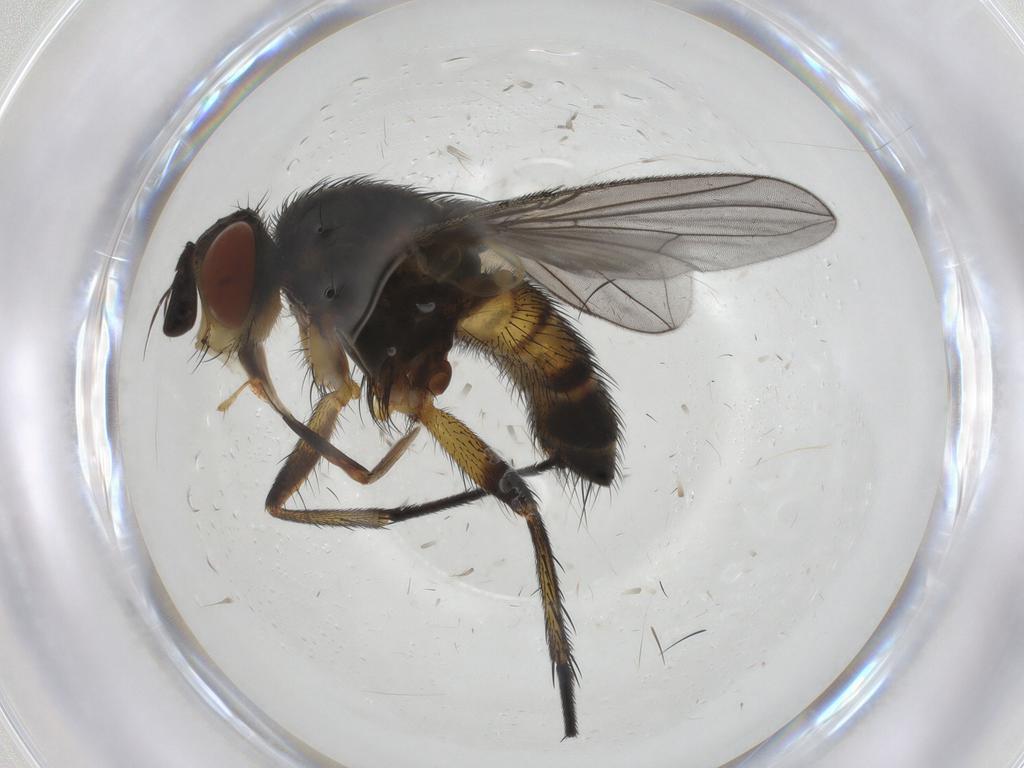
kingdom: Animalia
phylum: Arthropoda
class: Insecta
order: Diptera
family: Tachinidae
